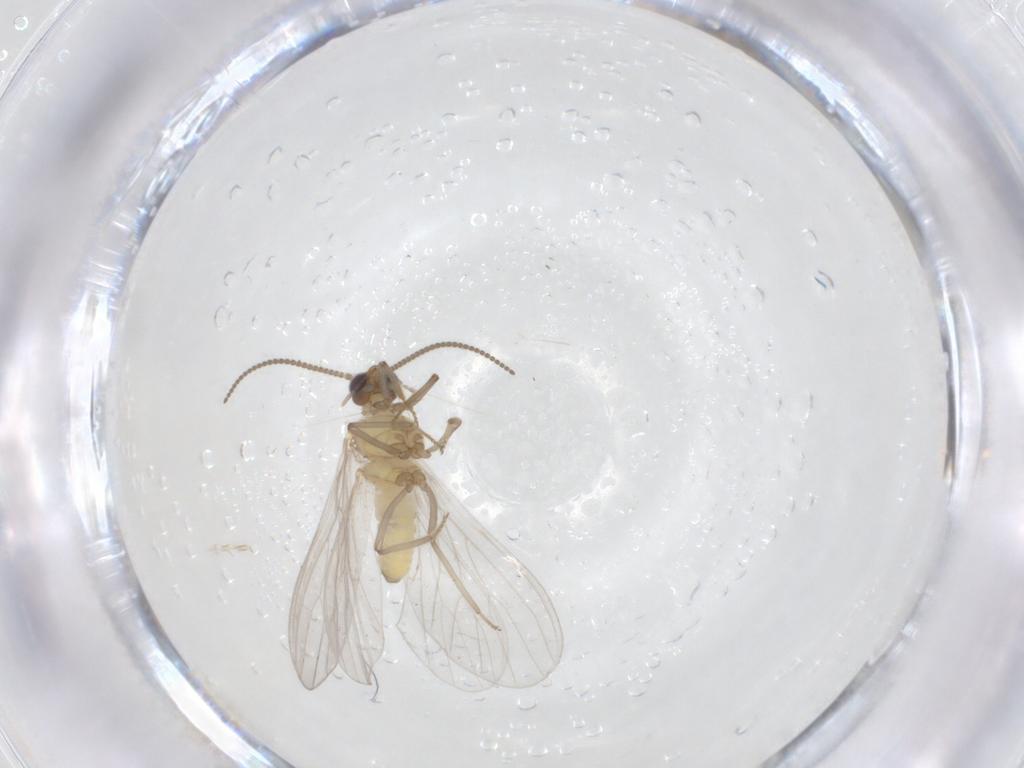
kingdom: Animalia
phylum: Arthropoda
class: Insecta
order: Neuroptera
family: Coniopterygidae
